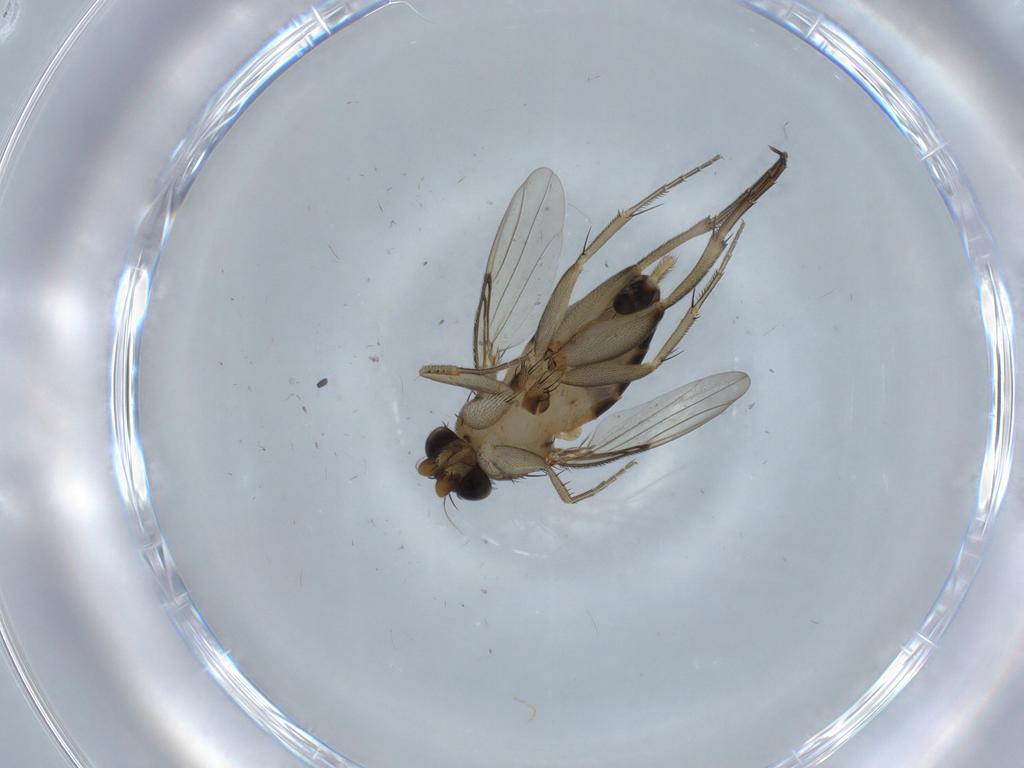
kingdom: Animalia
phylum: Arthropoda
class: Insecta
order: Diptera
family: Phoridae
